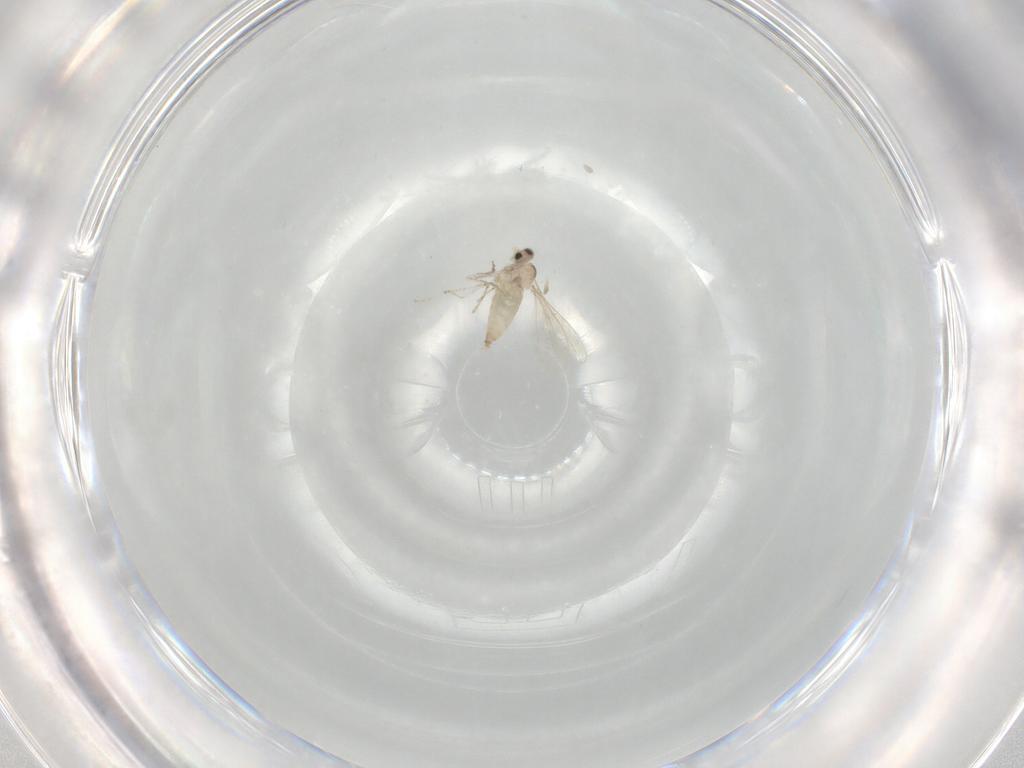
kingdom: Animalia
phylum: Arthropoda
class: Insecta
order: Diptera
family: Cecidomyiidae
